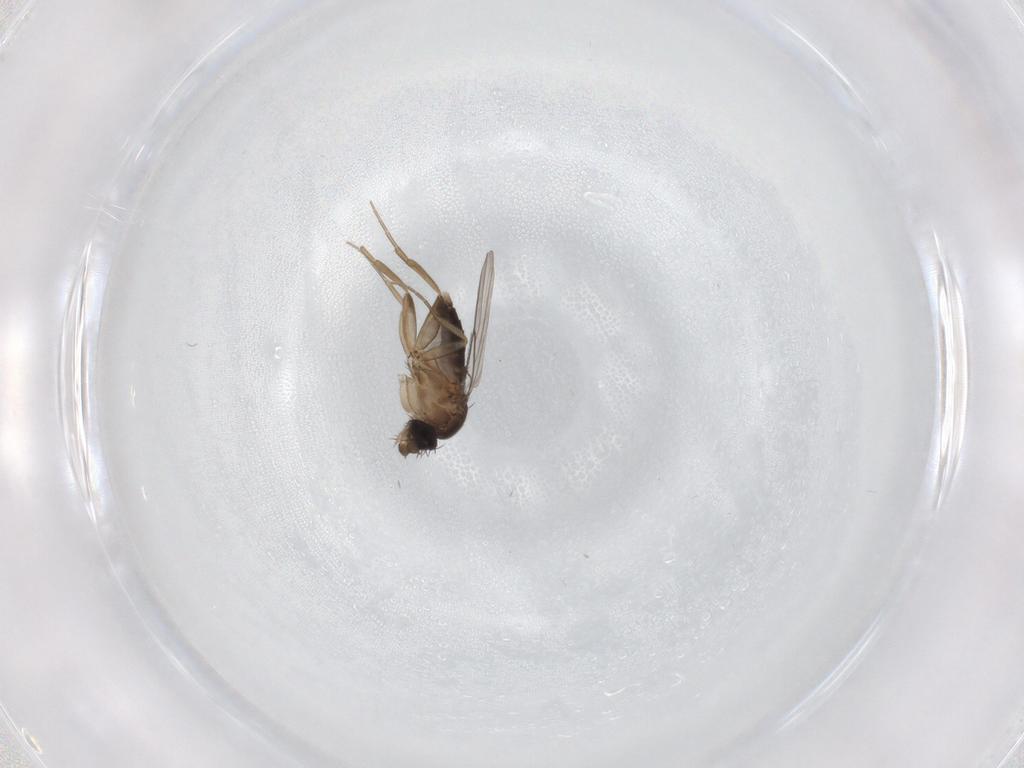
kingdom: Animalia
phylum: Arthropoda
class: Insecta
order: Diptera
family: Phoridae
